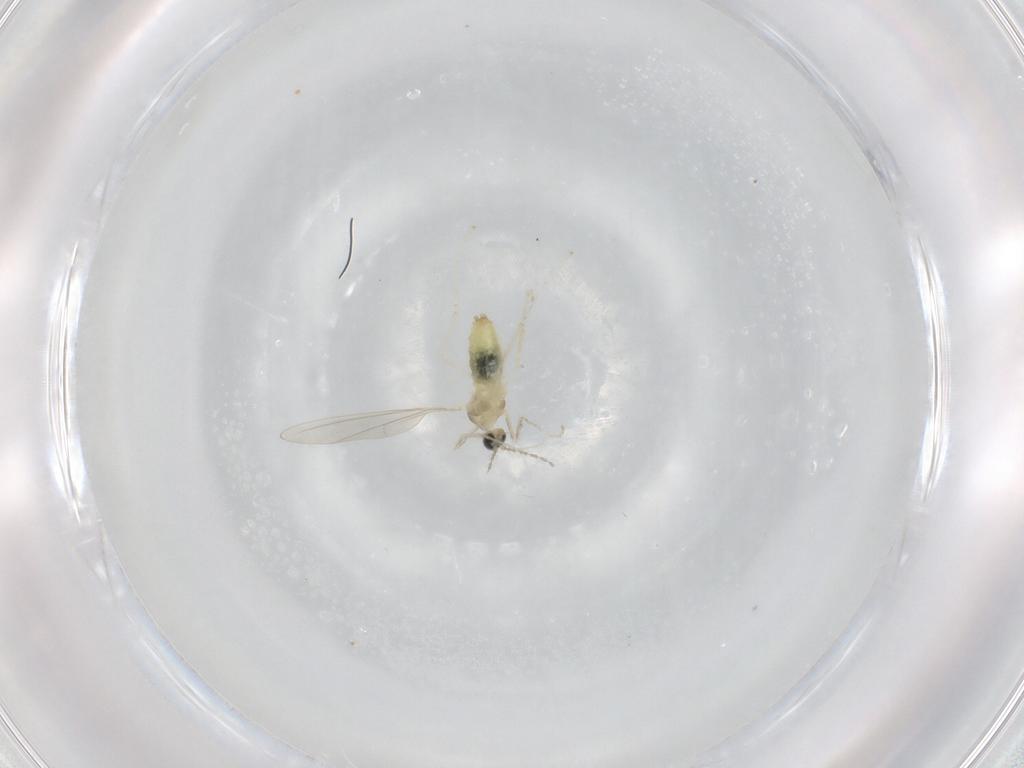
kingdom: Animalia
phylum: Arthropoda
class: Insecta
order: Diptera
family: Cecidomyiidae
